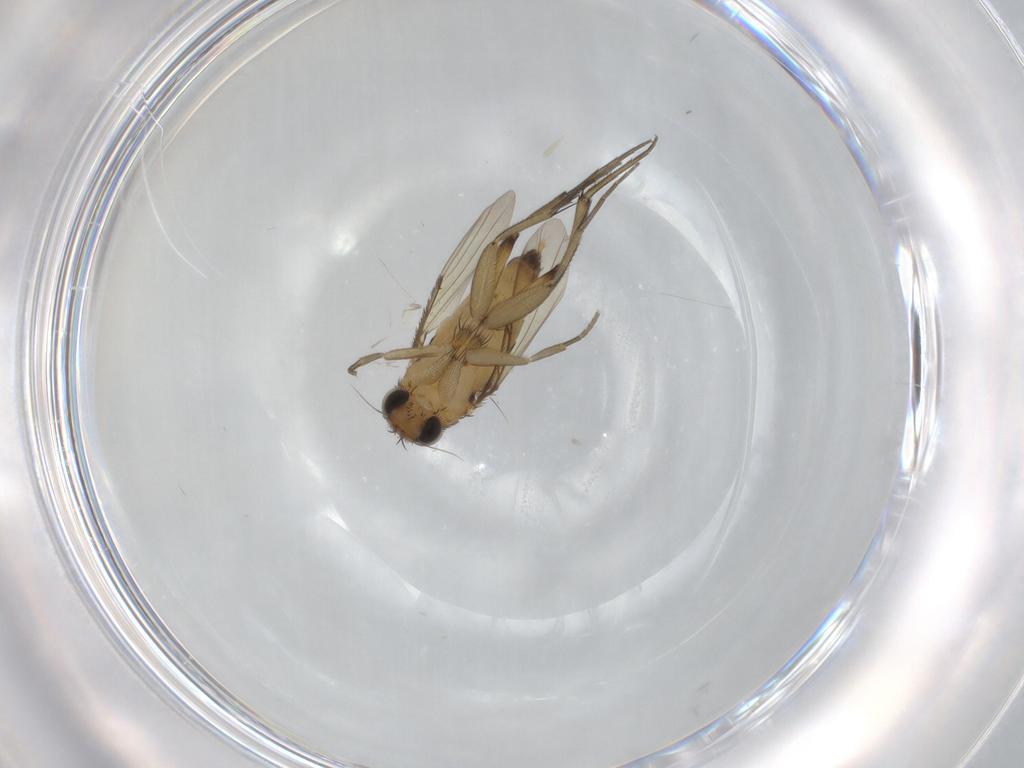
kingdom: Animalia
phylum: Arthropoda
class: Insecta
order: Diptera
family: Phoridae
